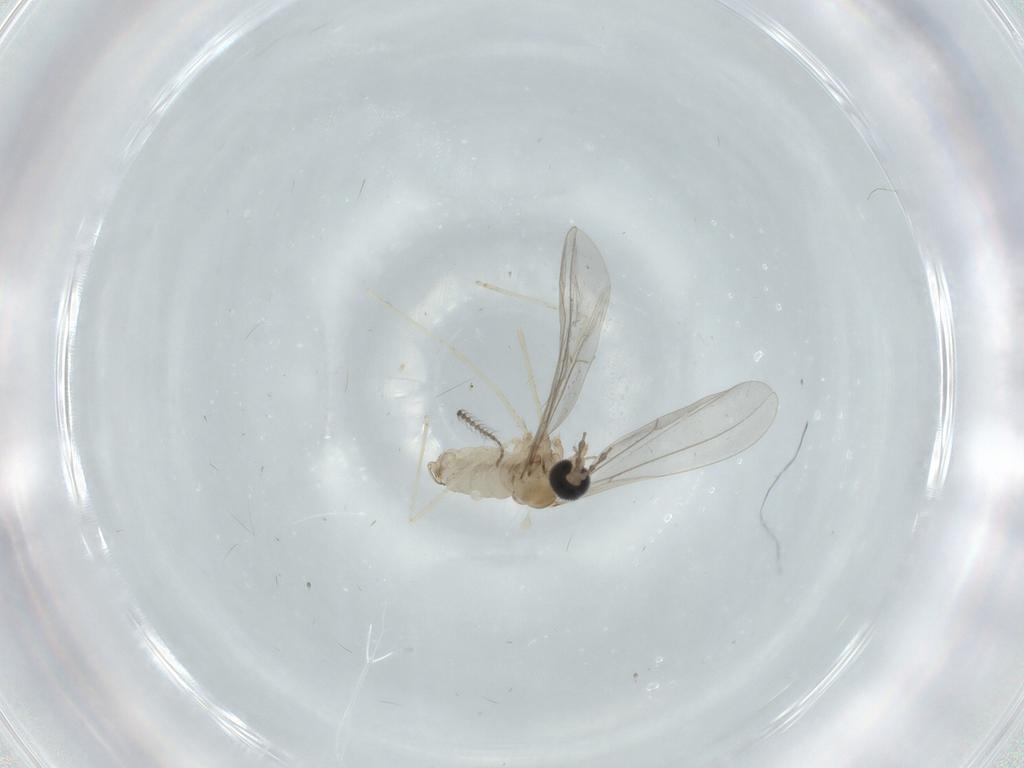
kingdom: Animalia
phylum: Arthropoda
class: Insecta
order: Diptera
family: Cecidomyiidae
